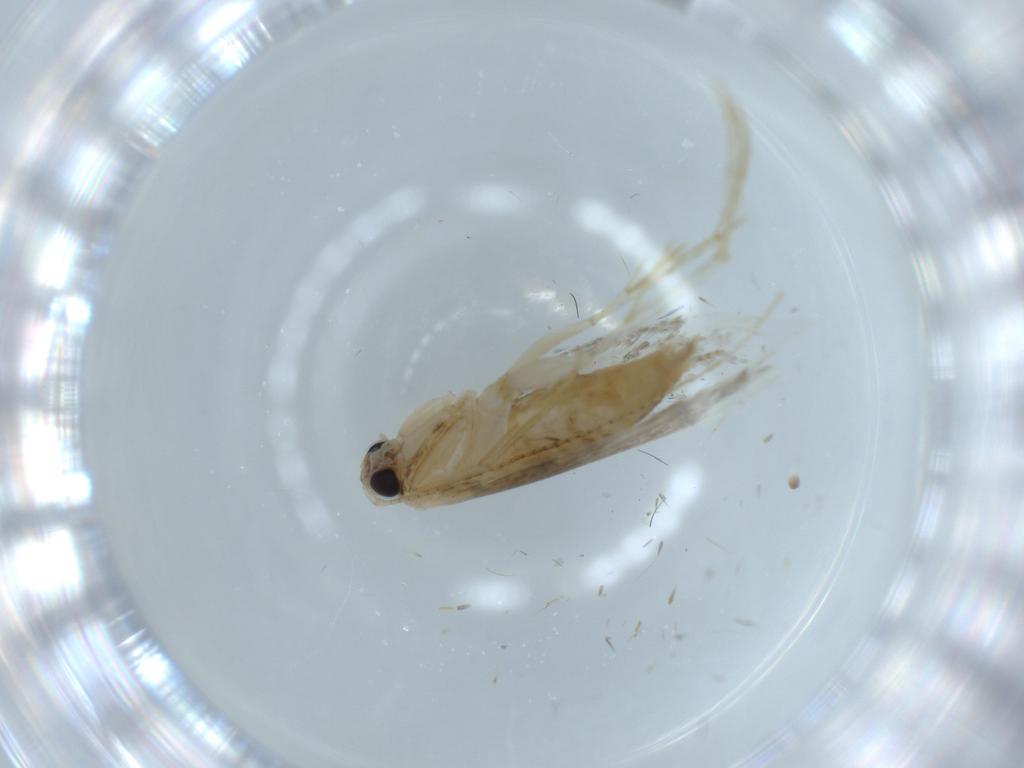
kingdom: Animalia
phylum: Arthropoda
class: Insecta
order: Lepidoptera
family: Tineidae
